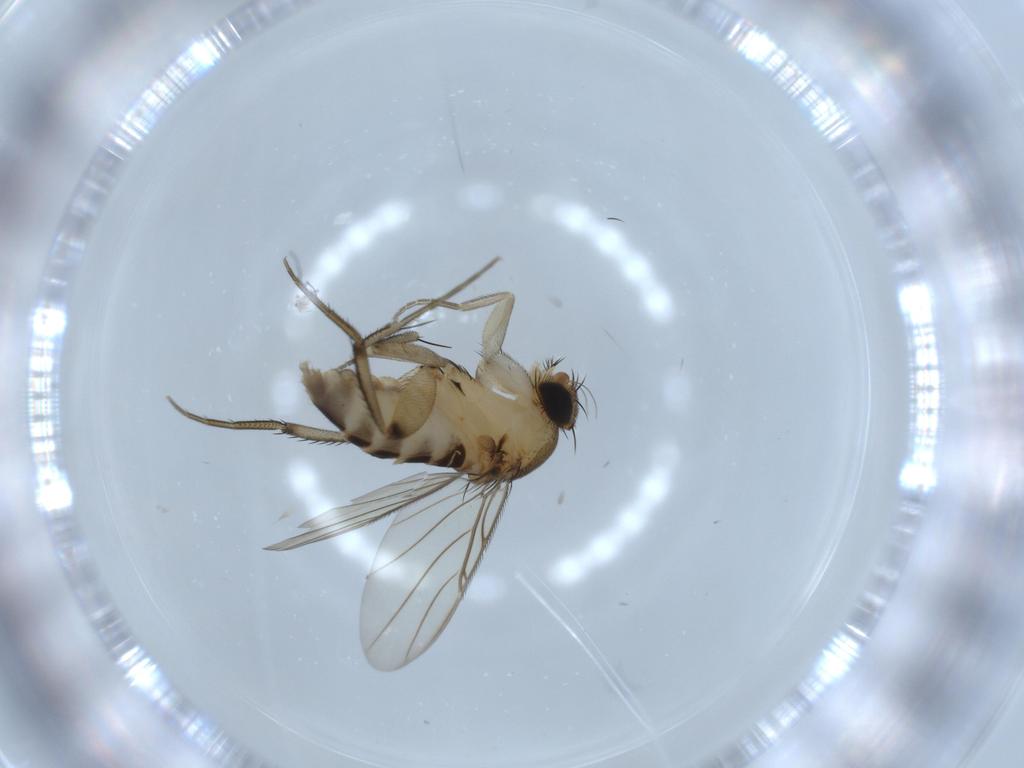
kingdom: Animalia
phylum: Arthropoda
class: Insecta
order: Diptera
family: Phoridae
